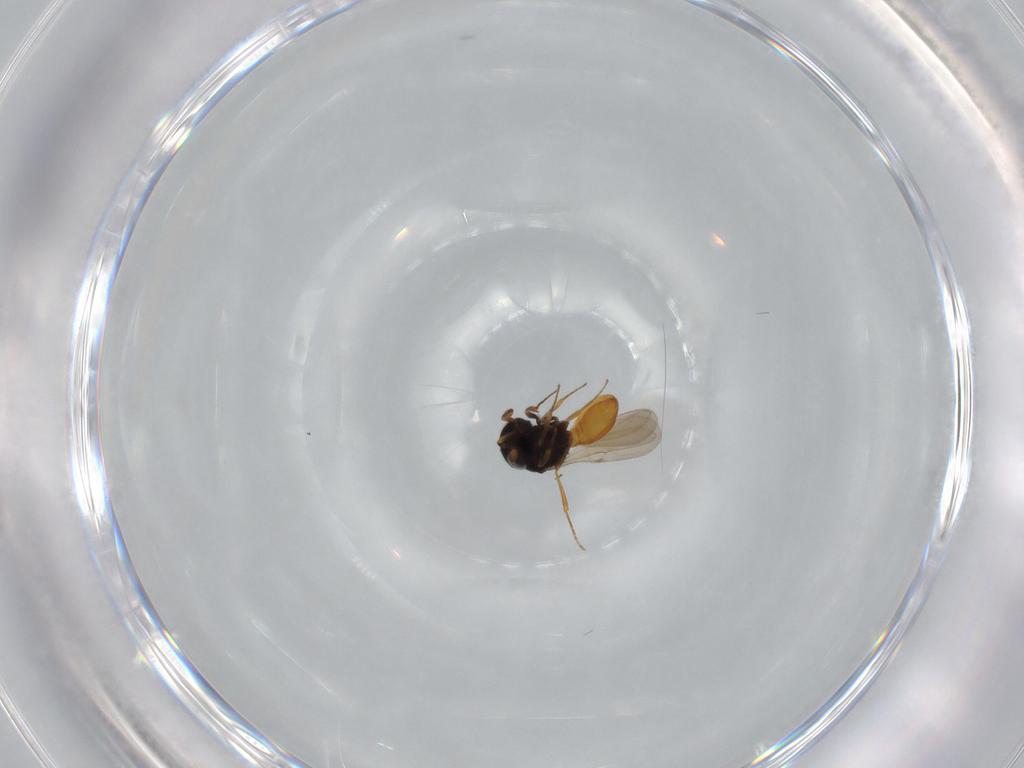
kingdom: Animalia
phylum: Arthropoda
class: Insecta
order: Hymenoptera
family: Scelionidae
